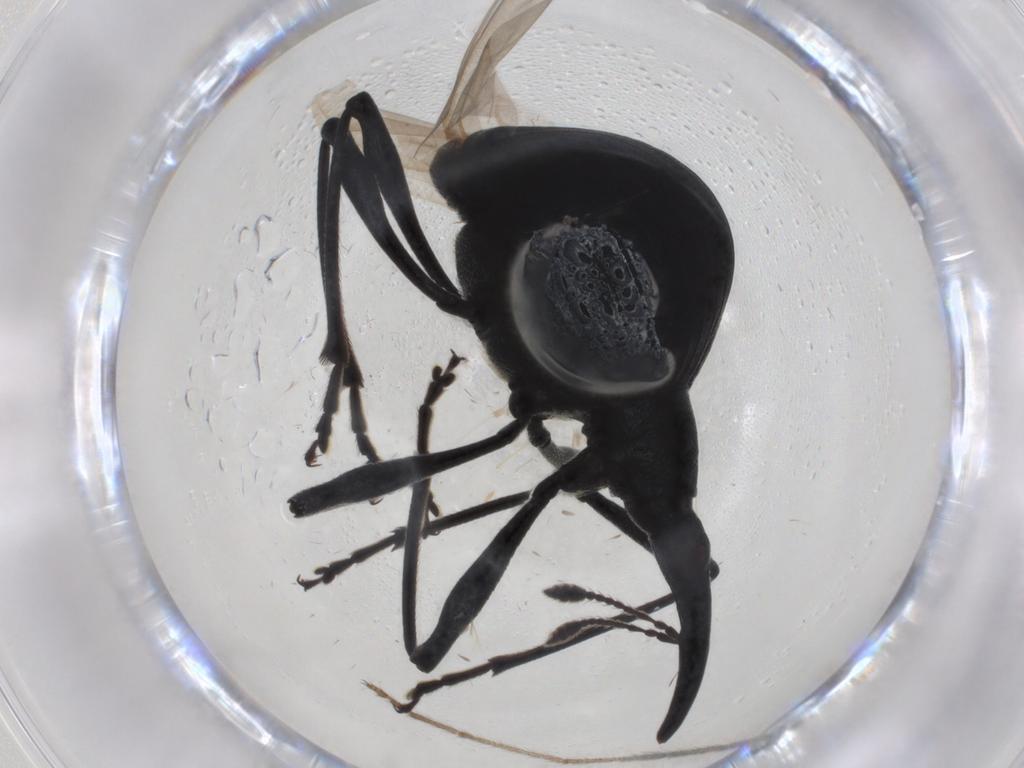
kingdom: Animalia
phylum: Arthropoda
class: Insecta
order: Coleoptera
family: Brentidae
